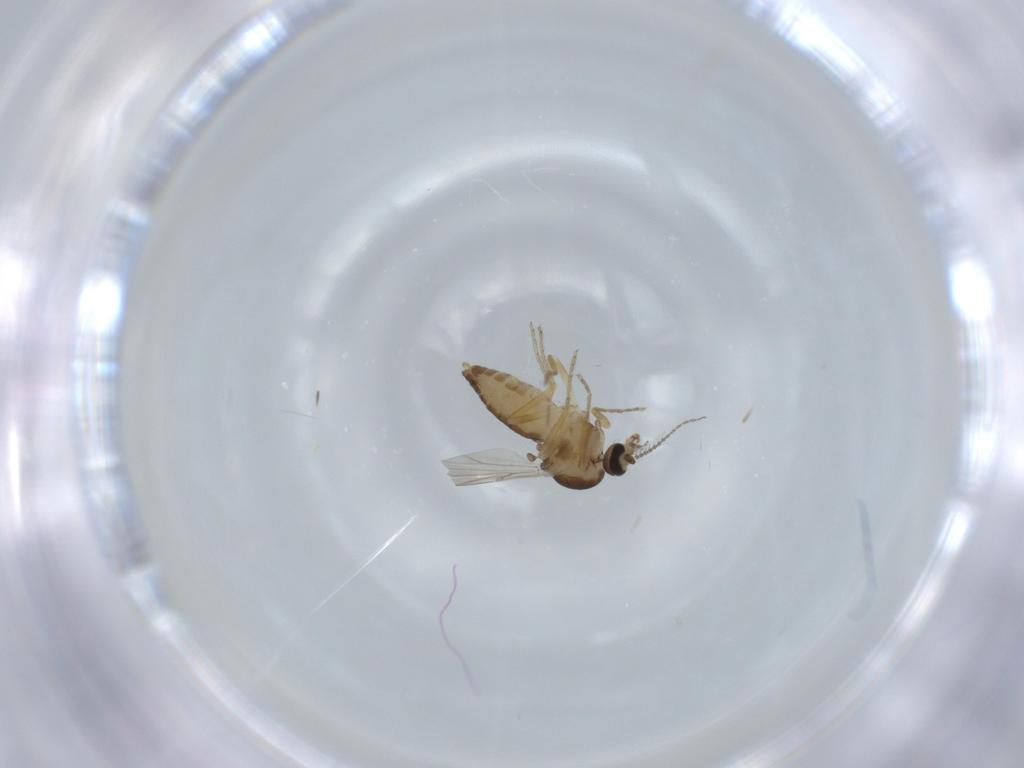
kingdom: Animalia
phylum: Arthropoda
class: Insecta
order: Diptera
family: Ceratopogonidae
